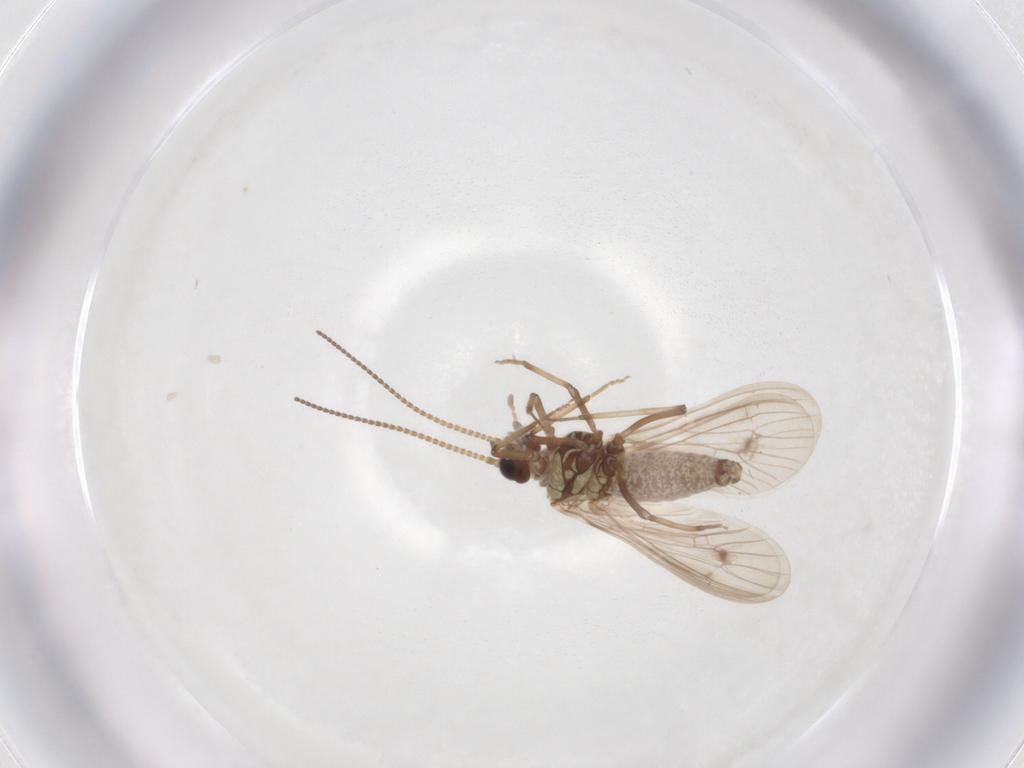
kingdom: Animalia
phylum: Arthropoda
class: Insecta
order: Neuroptera
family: Coniopterygidae
